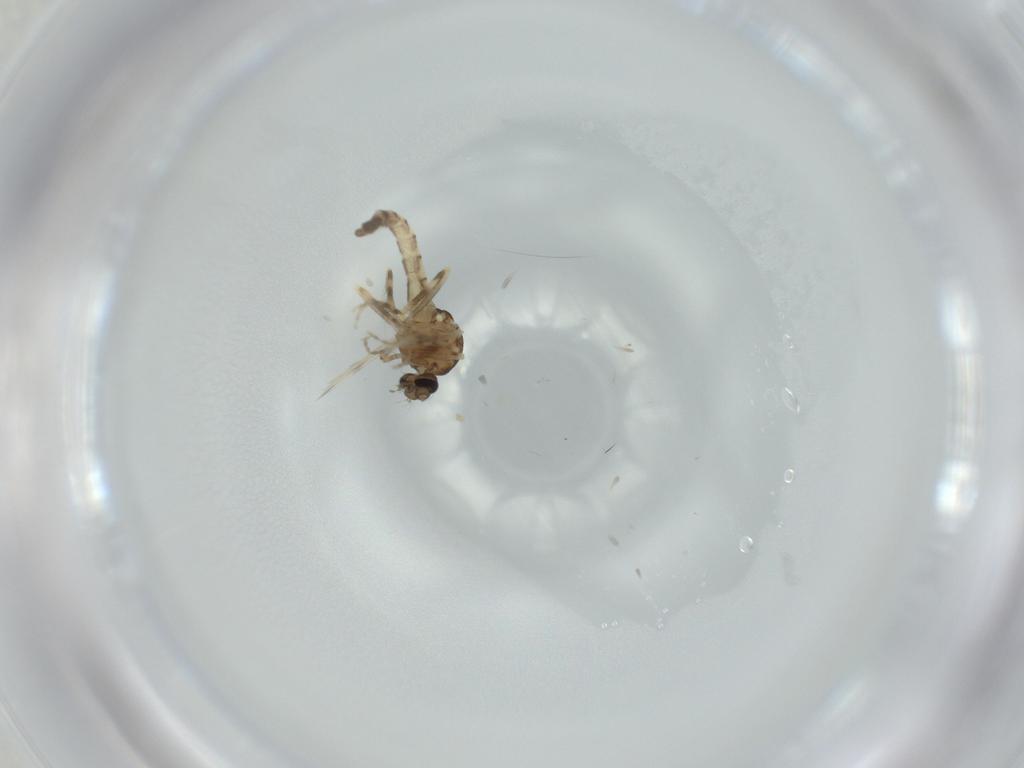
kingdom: Animalia
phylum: Arthropoda
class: Insecta
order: Diptera
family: Ceratopogonidae
